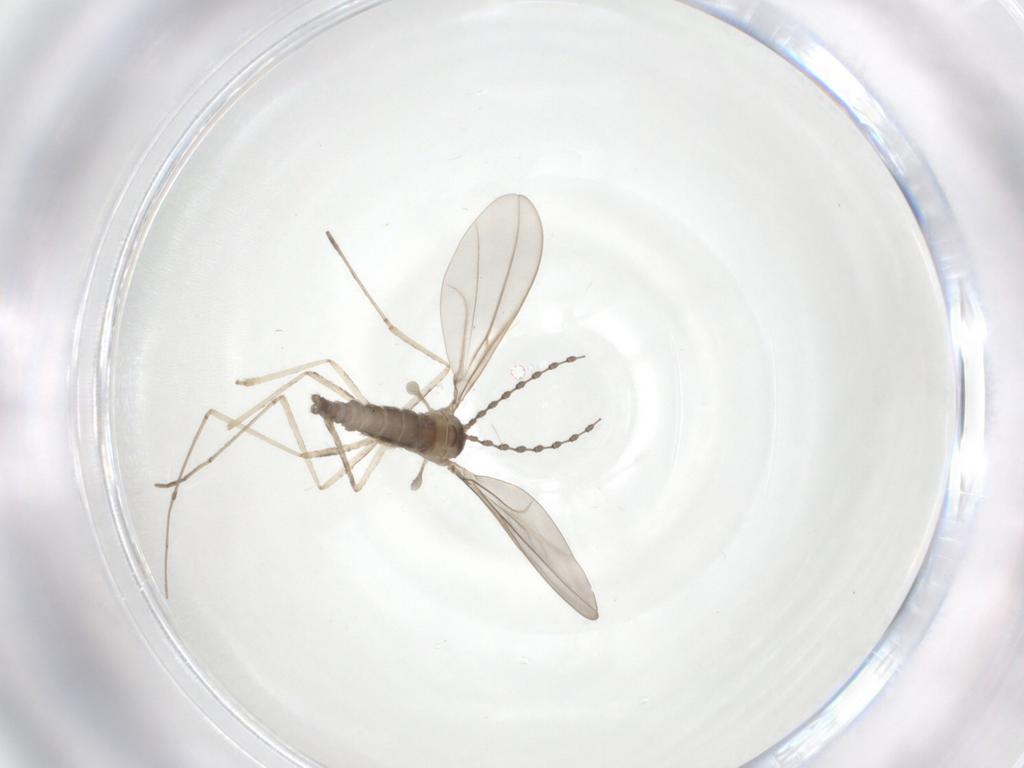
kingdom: Animalia
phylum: Arthropoda
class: Insecta
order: Diptera
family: Cecidomyiidae
